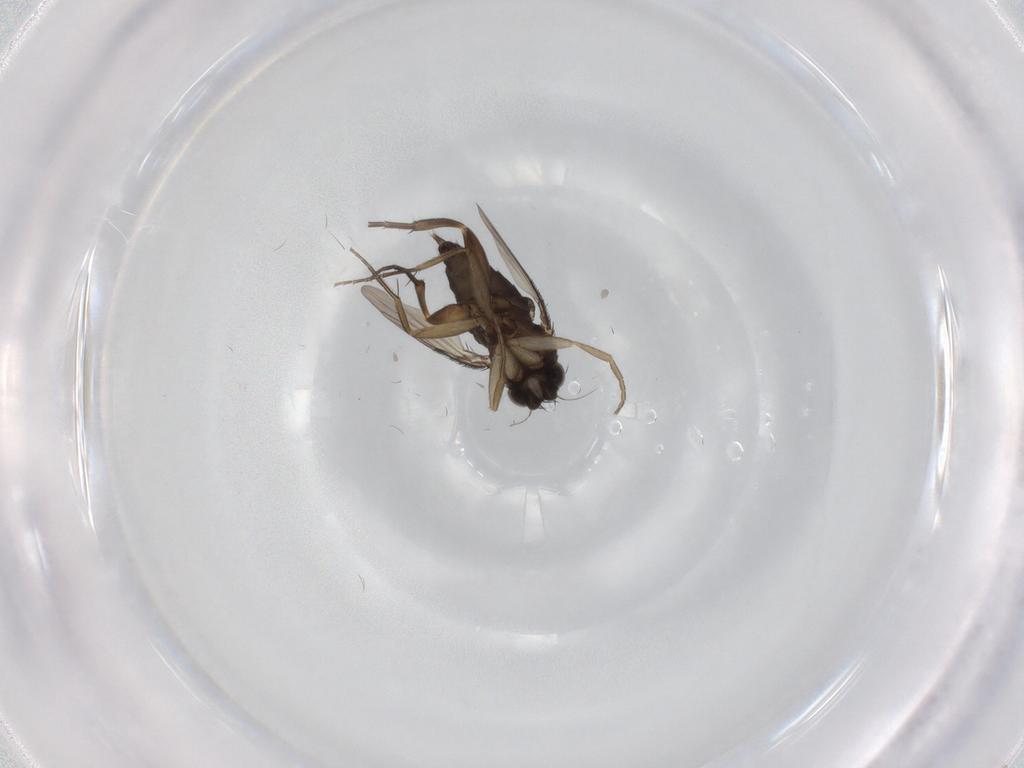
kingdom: Animalia
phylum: Arthropoda
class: Insecta
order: Diptera
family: Phoridae
